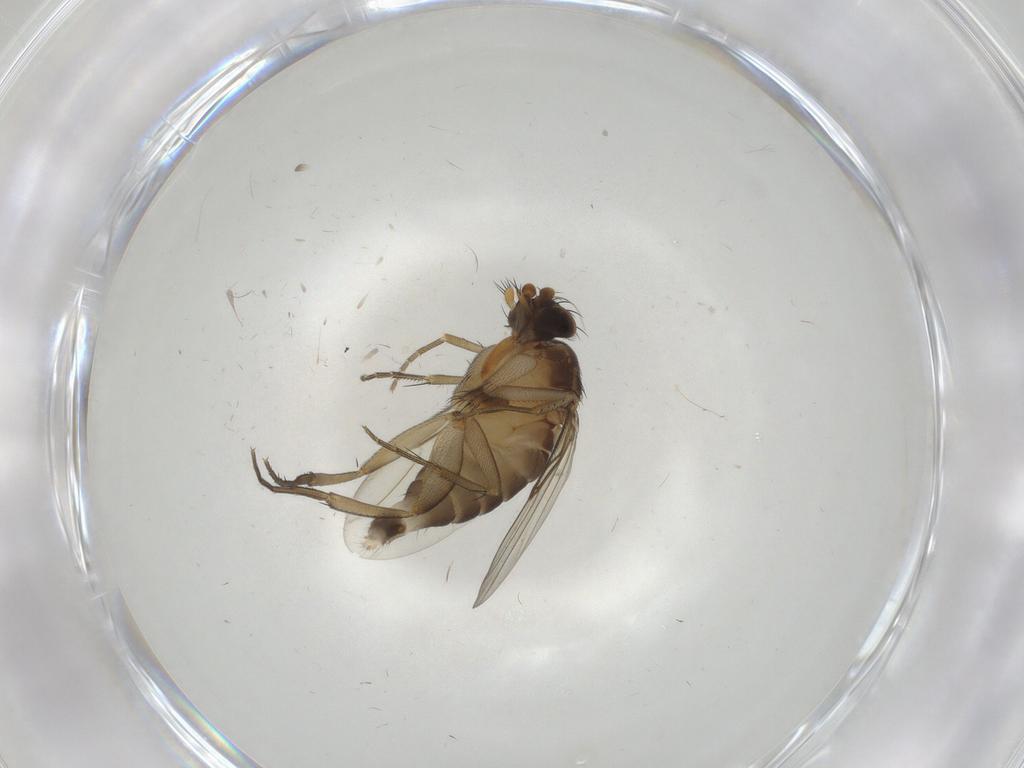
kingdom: Animalia
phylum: Arthropoda
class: Insecta
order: Diptera
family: Phoridae
